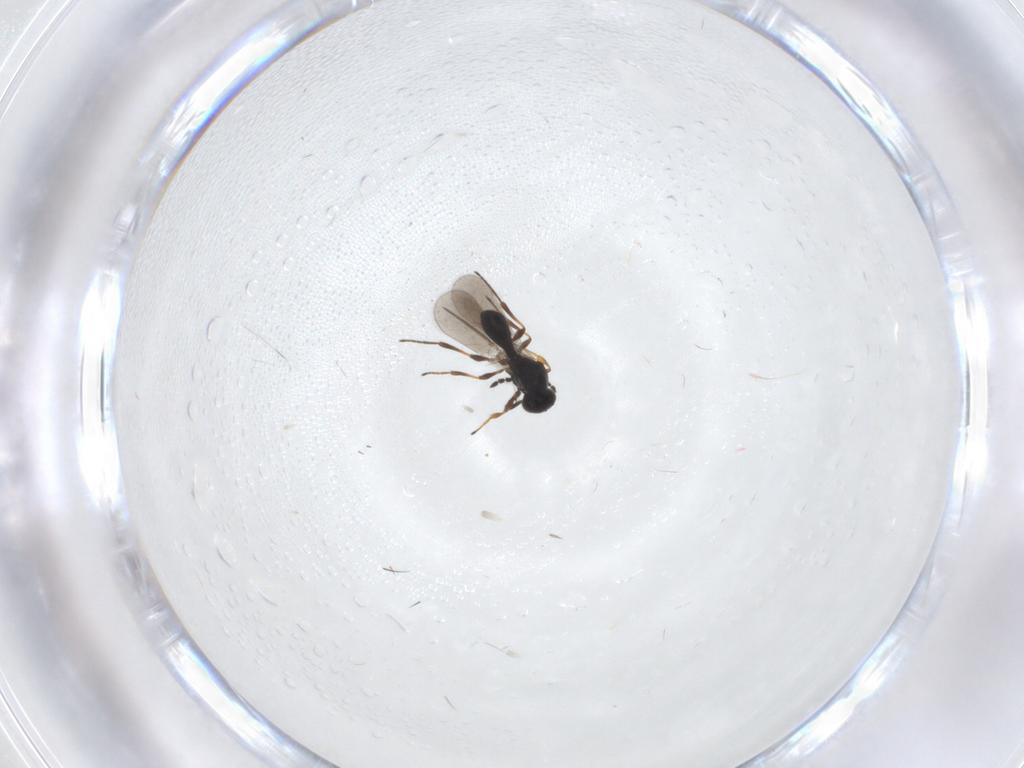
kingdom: Animalia
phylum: Arthropoda
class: Insecta
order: Hymenoptera
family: Platygastridae
